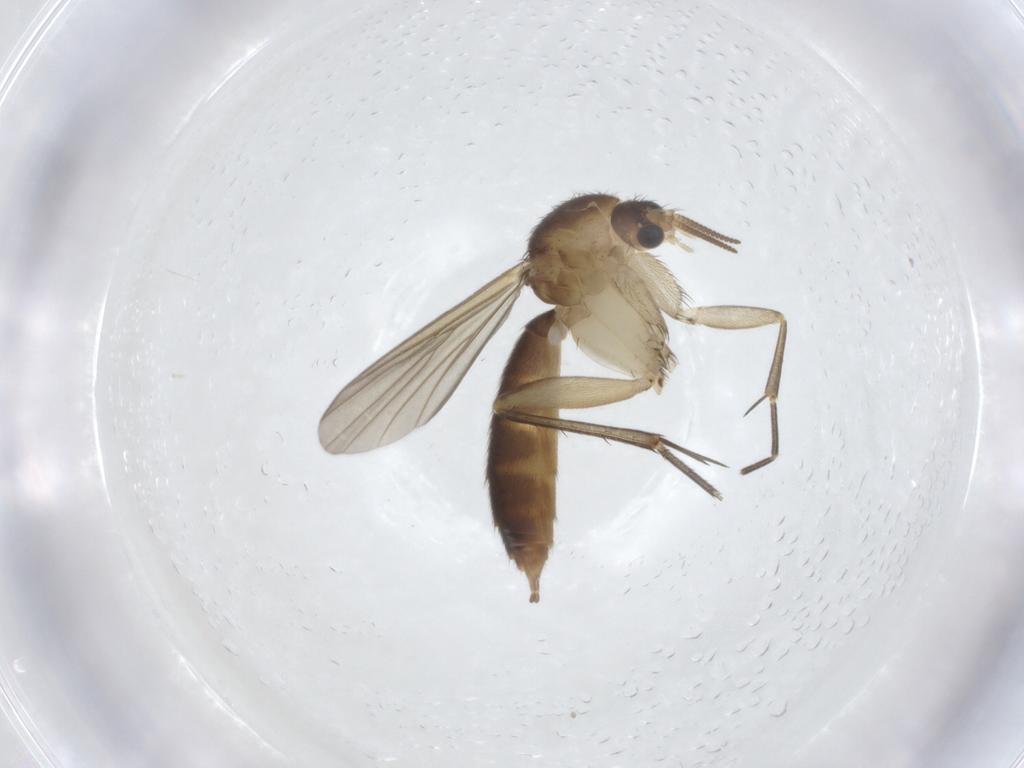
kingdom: Animalia
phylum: Arthropoda
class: Insecta
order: Diptera
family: Mycetophilidae
